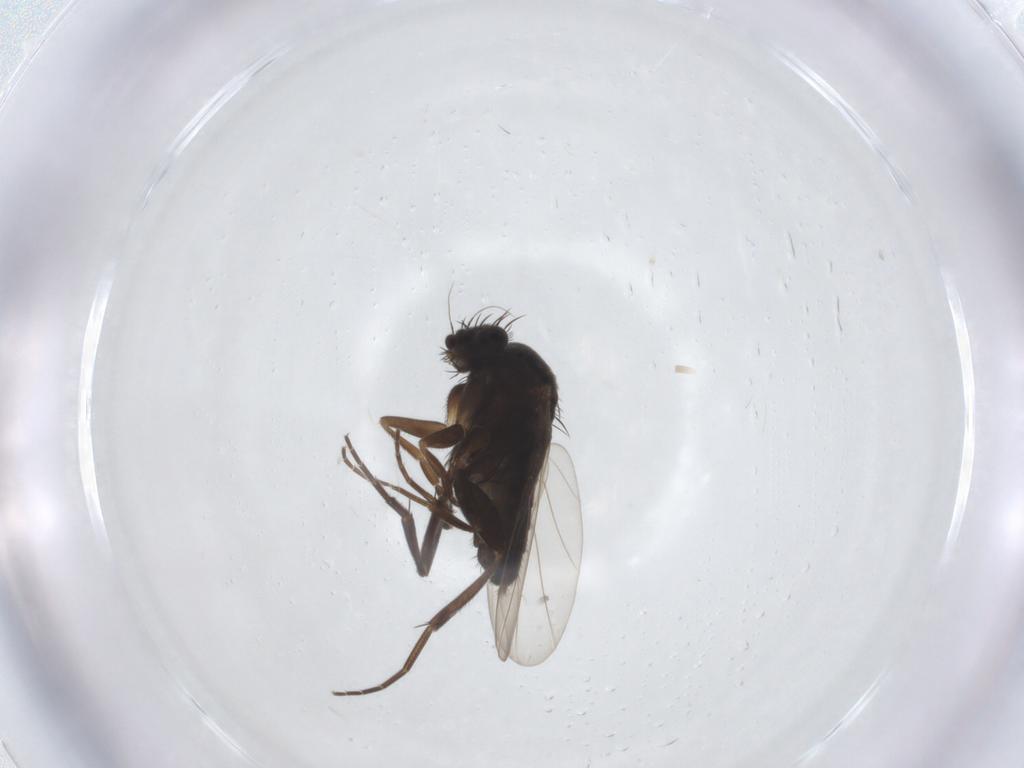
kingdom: Animalia
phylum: Arthropoda
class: Insecta
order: Diptera
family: Phoridae
